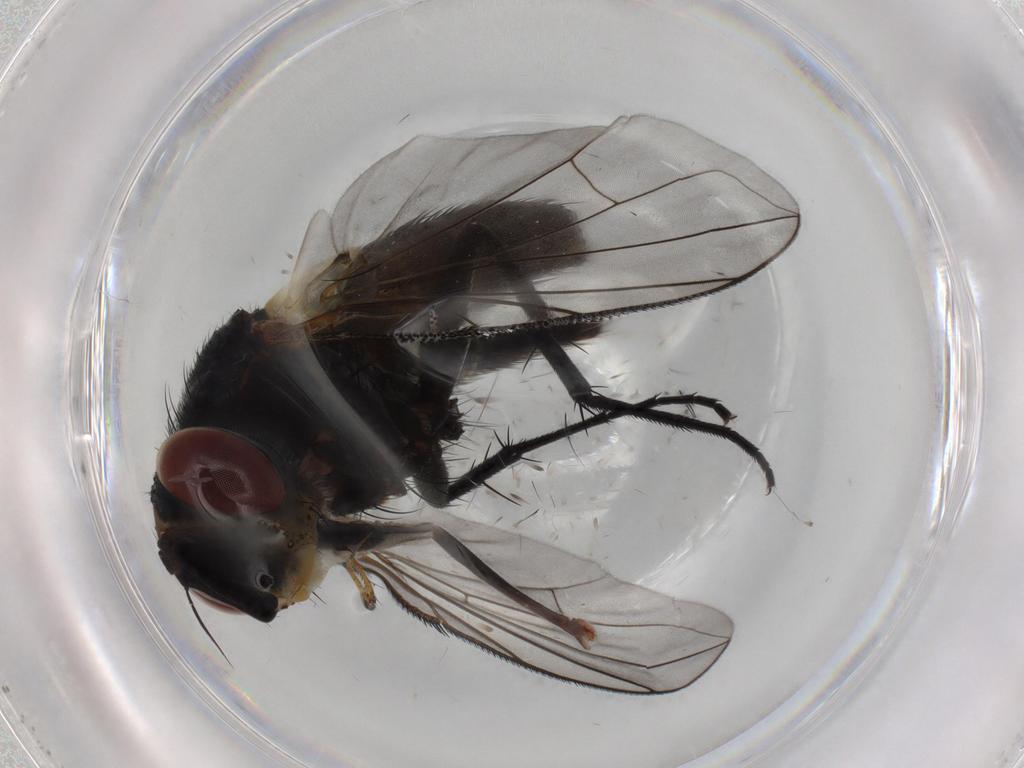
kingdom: Animalia
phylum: Arthropoda
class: Insecta
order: Diptera
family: Tachinidae
